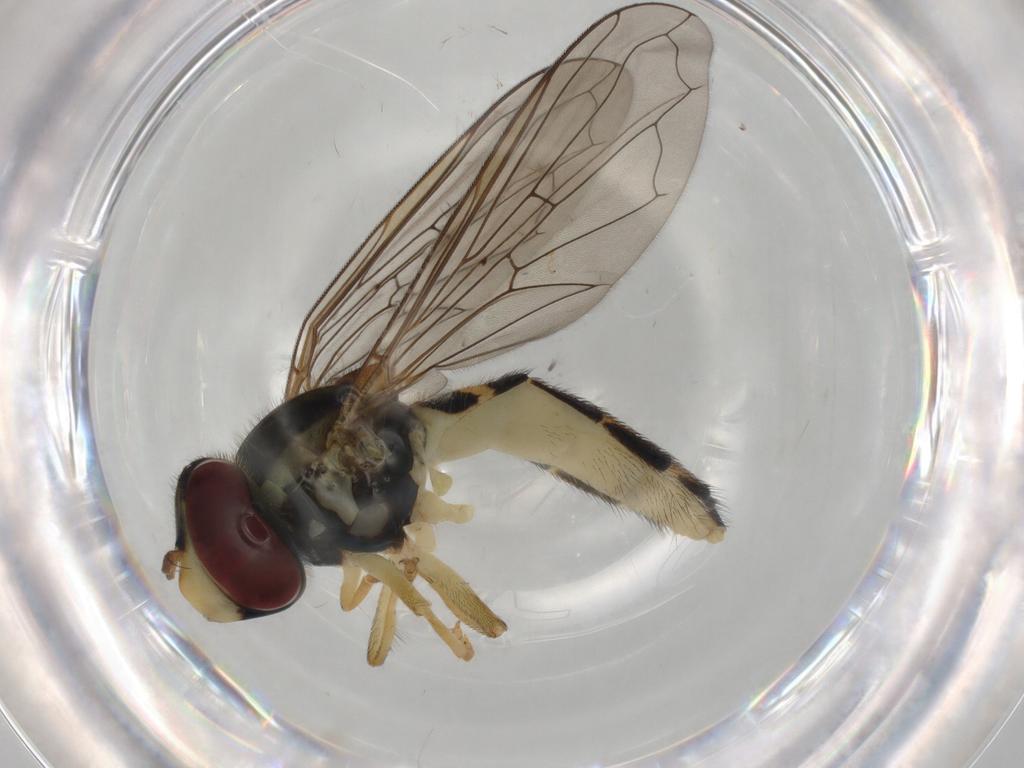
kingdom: Animalia
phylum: Arthropoda
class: Insecta
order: Diptera
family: Syrphidae
